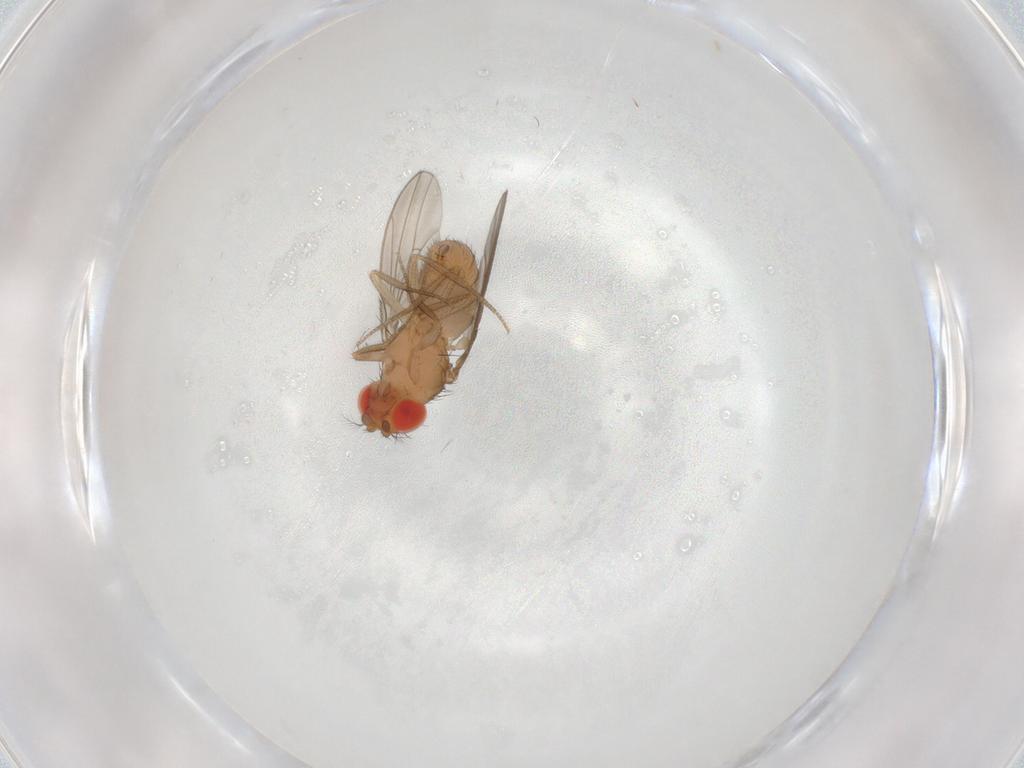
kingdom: Animalia
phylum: Arthropoda
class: Insecta
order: Diptera
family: Drosophilidae
